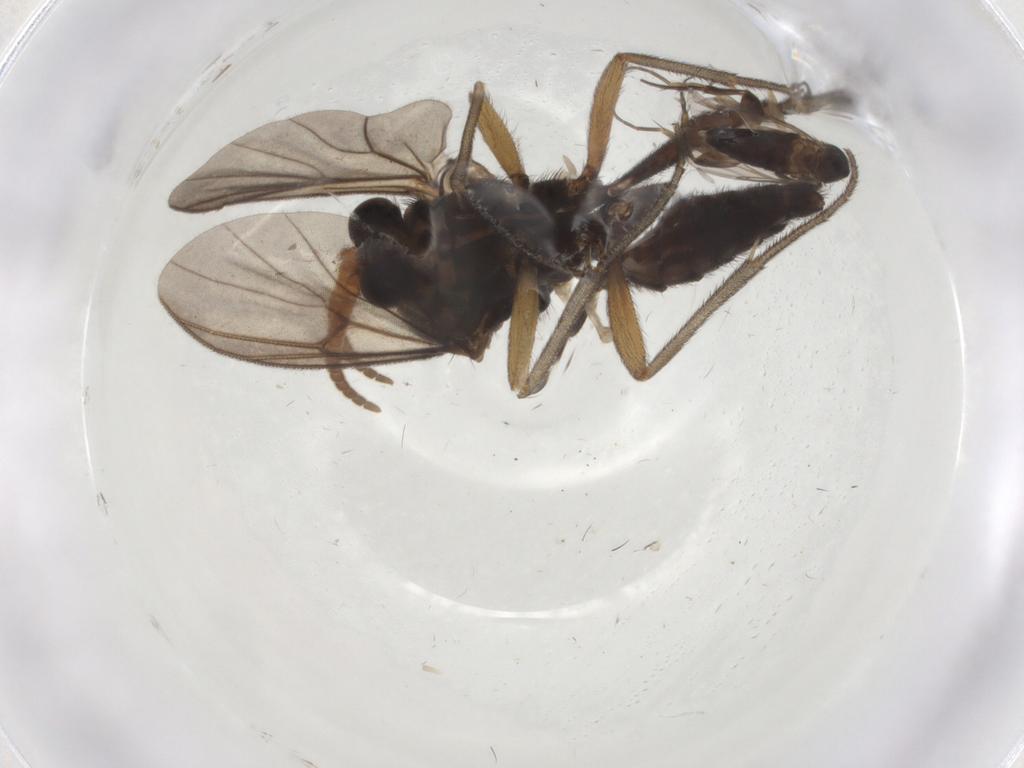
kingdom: Animalia
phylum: Arthropoda
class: Insecta
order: Diptera
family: Mycetophilidae
